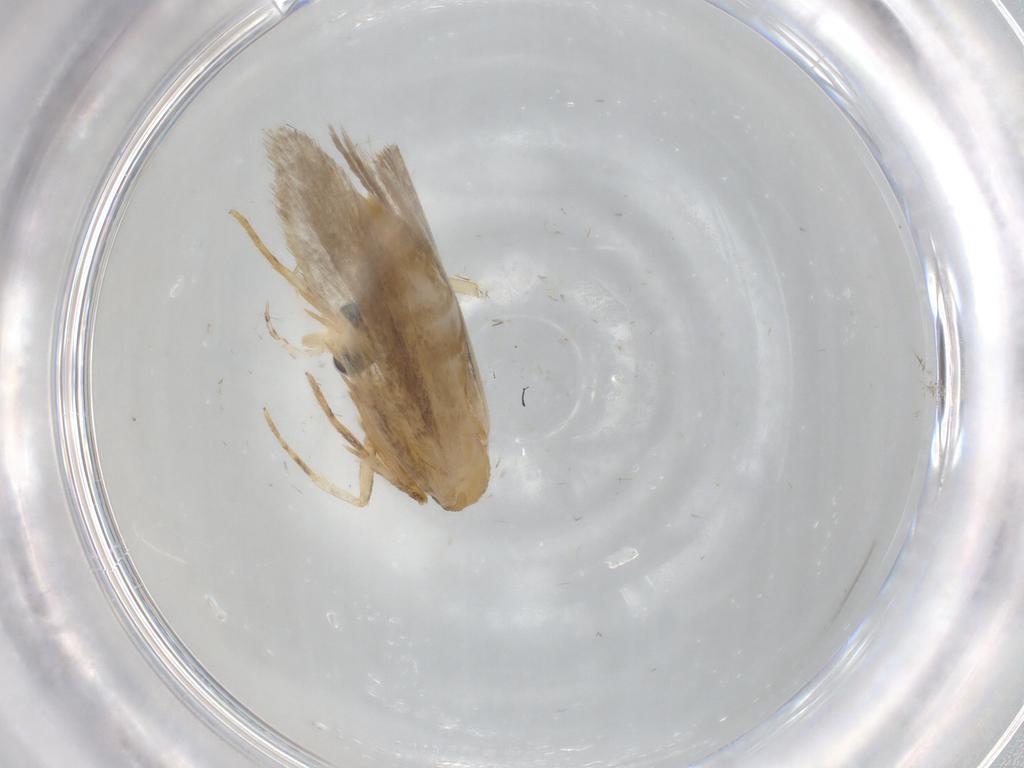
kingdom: Animalia
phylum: Arthropoda
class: Insecta
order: Lepidoptera
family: Autostichidae
